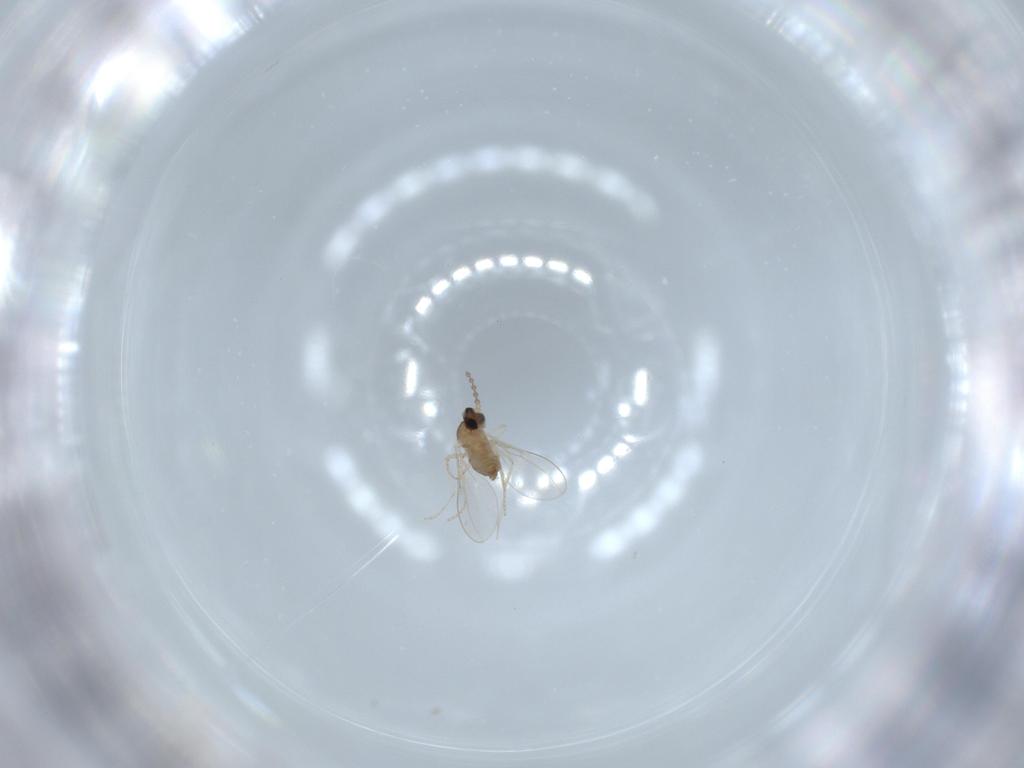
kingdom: Animalia
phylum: Arthropoda
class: Insecta
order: Diptera
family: Cecidomyiidae
